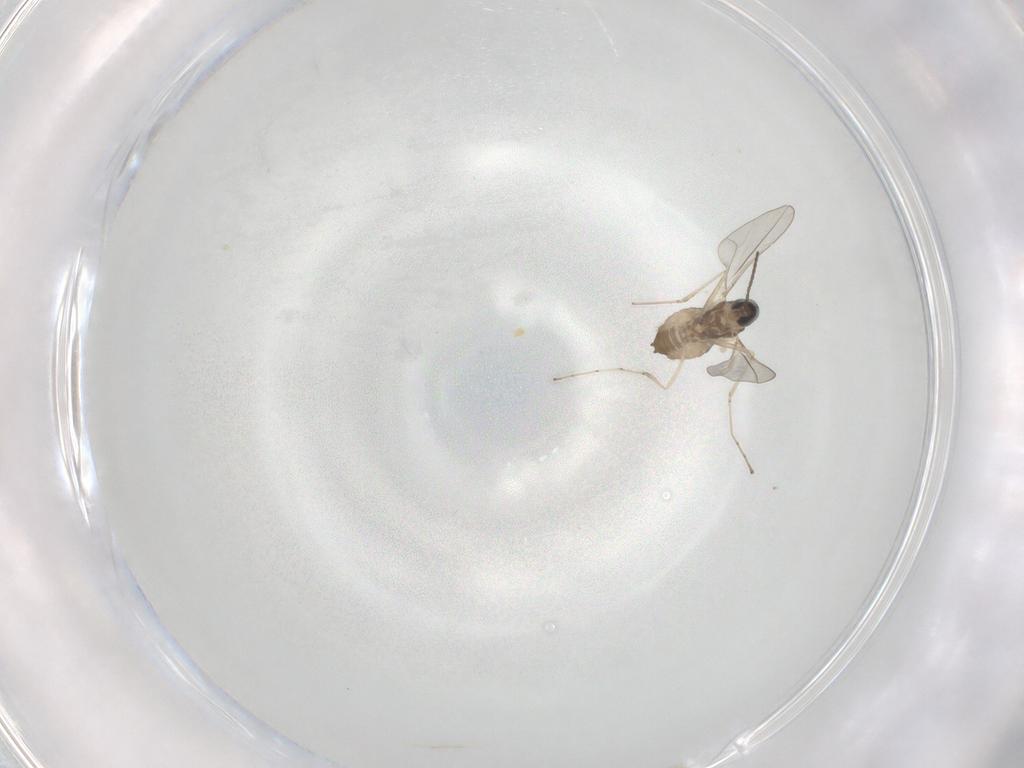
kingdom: Animalia
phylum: Arthropoda
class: Insecta
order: Diptera
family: Cecidomyiidae
